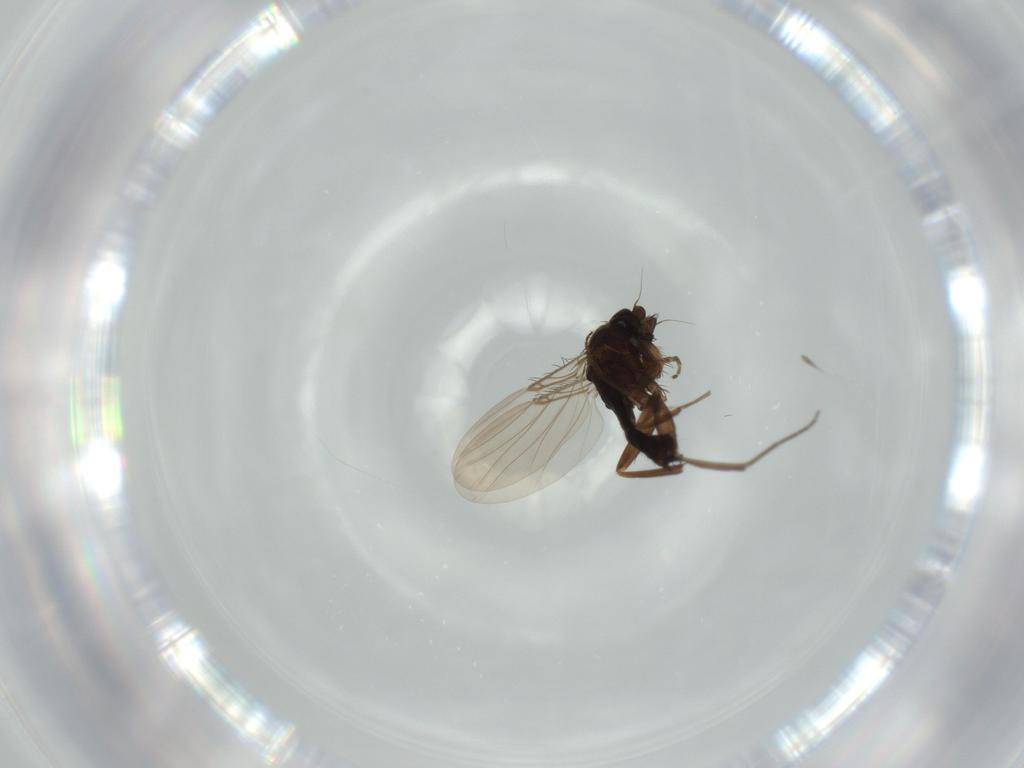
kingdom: Animalia
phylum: Arthropoda
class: Insecta
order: Diptera
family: Phoridae
